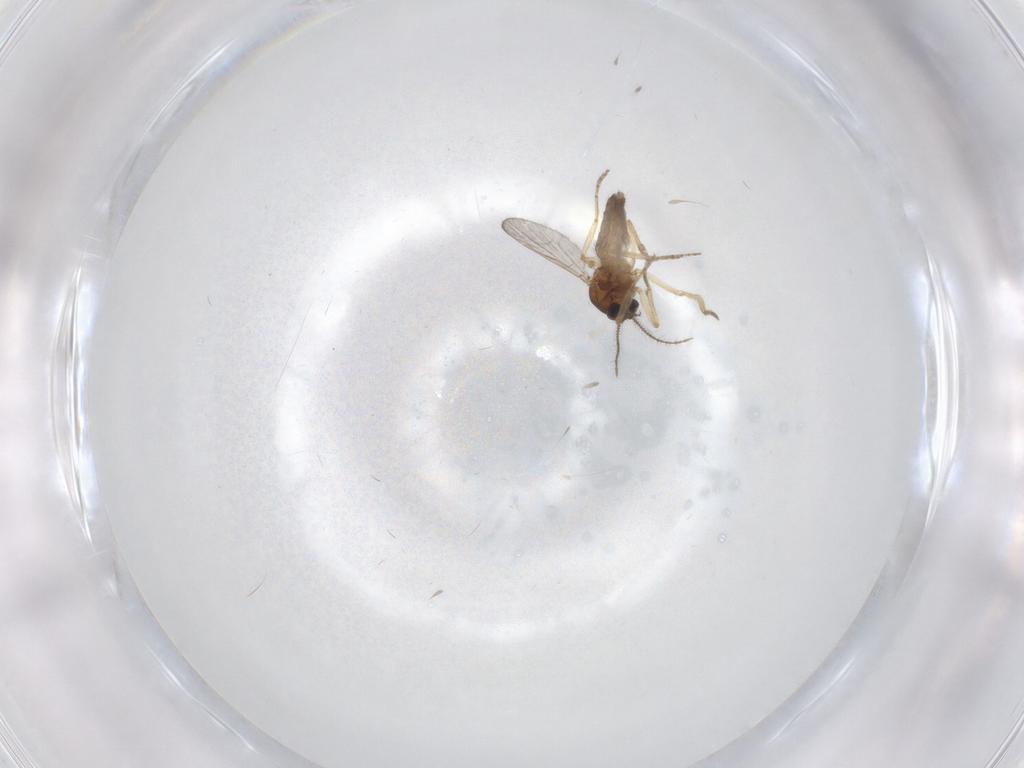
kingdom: Animalia
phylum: Arthropoda
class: Insecta
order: Diptera
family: Ceratopogonidae
